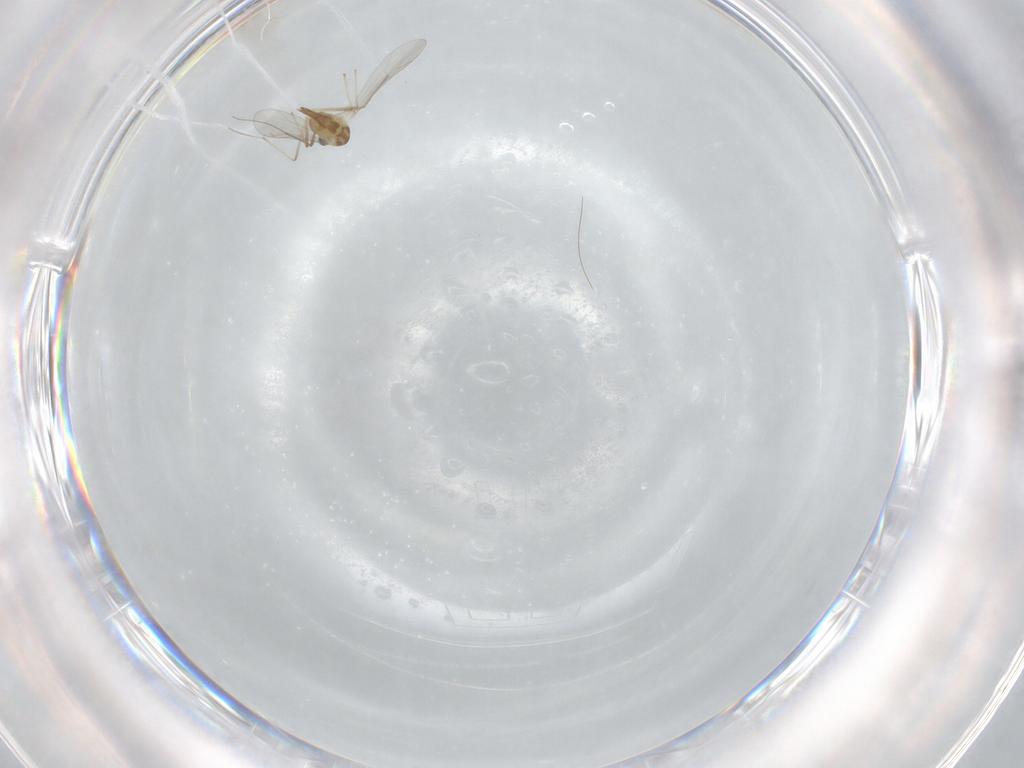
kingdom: Animalia
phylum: Arthropoda
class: Insecta
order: Diptera
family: Chironomidae
